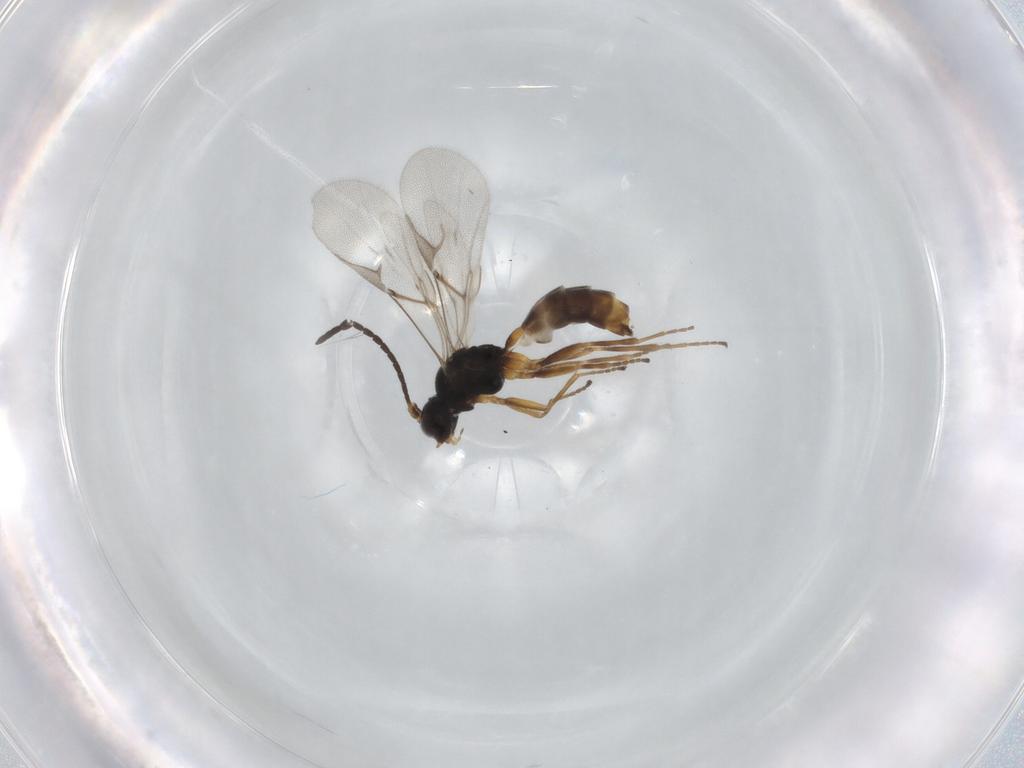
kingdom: Animalia
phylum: Arthropoda
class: Insecta
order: Hymenoptera
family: Braconidae
